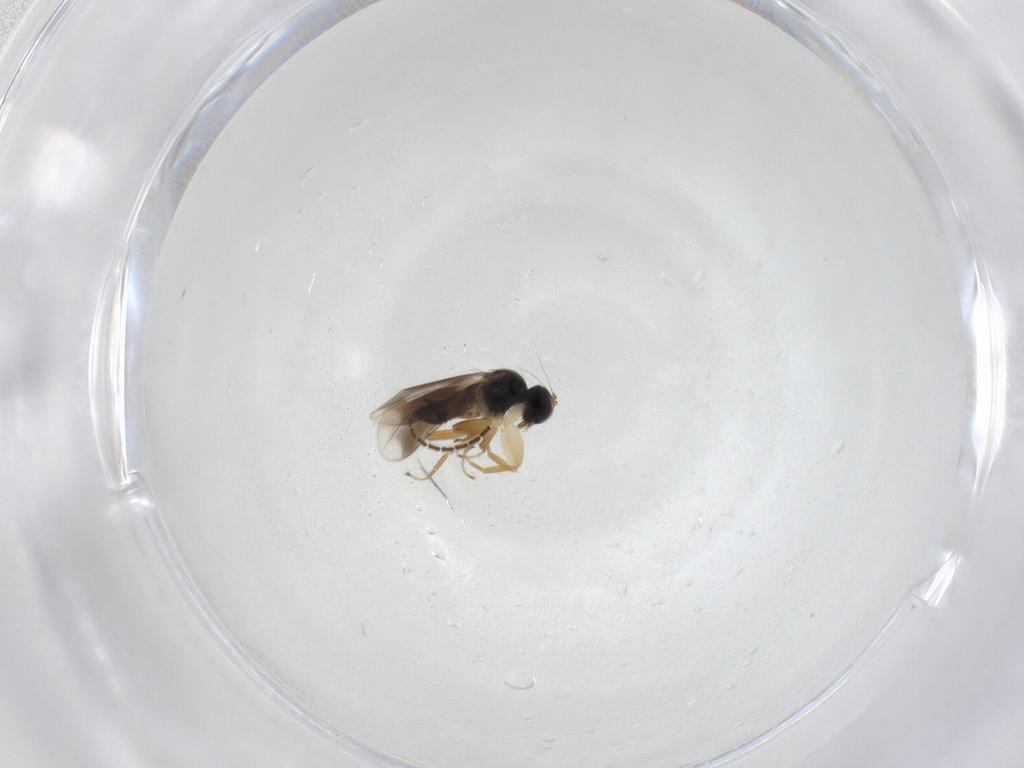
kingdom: Animalia
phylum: Arthropoda
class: Insecta
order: Diptera
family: Hybotidae
